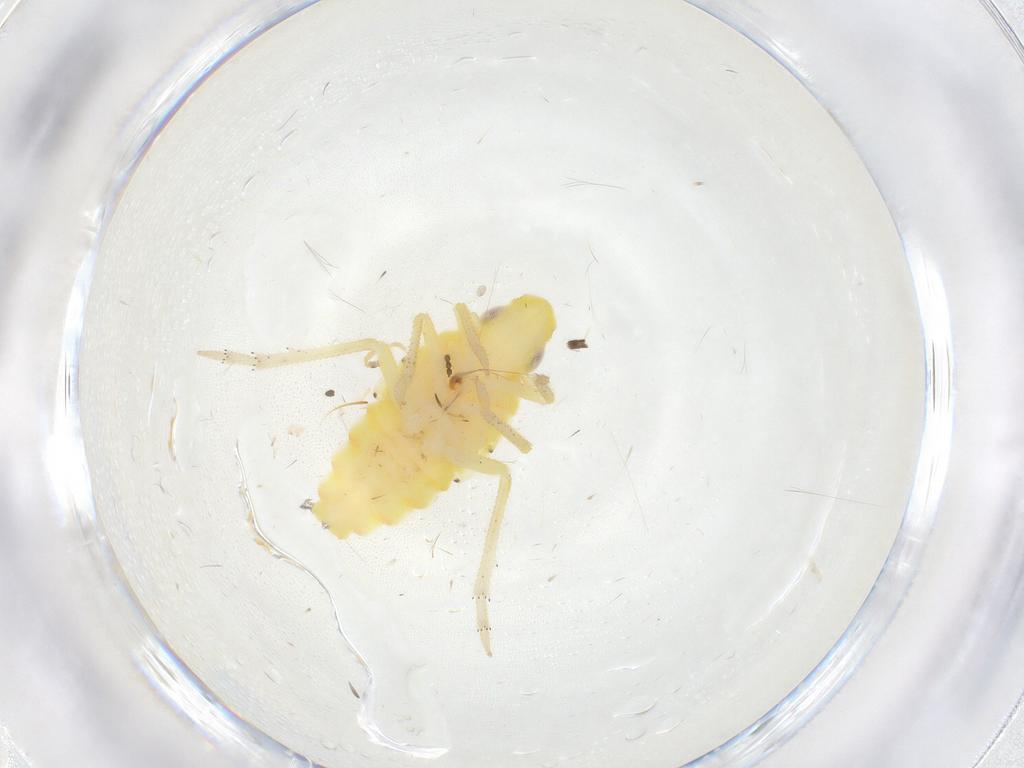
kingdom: Animalia
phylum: Arthropoda
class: Insecta
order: Hemiptera
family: Tropiduchidae
